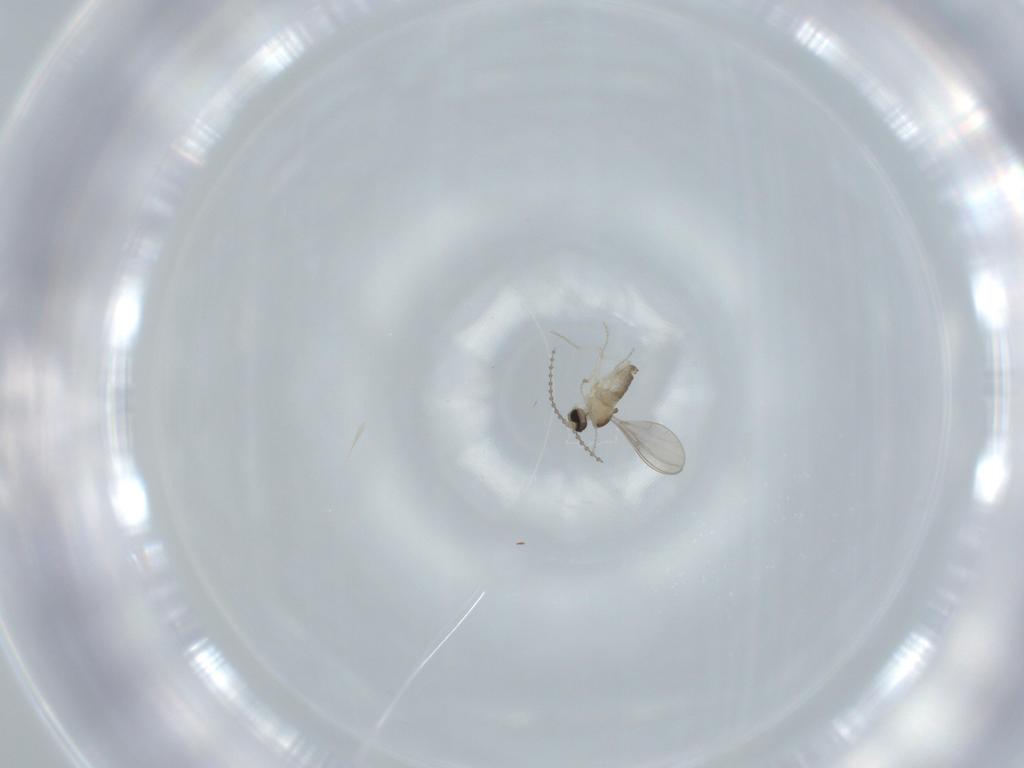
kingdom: Animalia
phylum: Arthropoda
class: Insecta
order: Diptera
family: Cecidomyiidae
